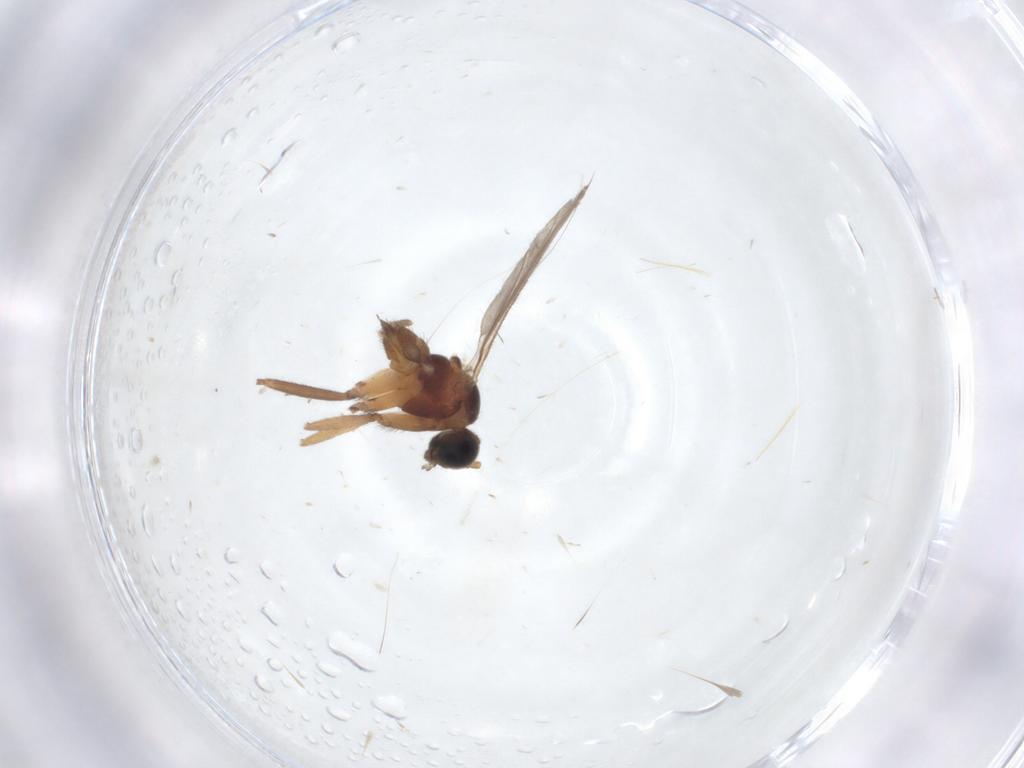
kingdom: Animalia
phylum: Arthropoda
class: Insecta
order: Diptera
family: Sciaridae
